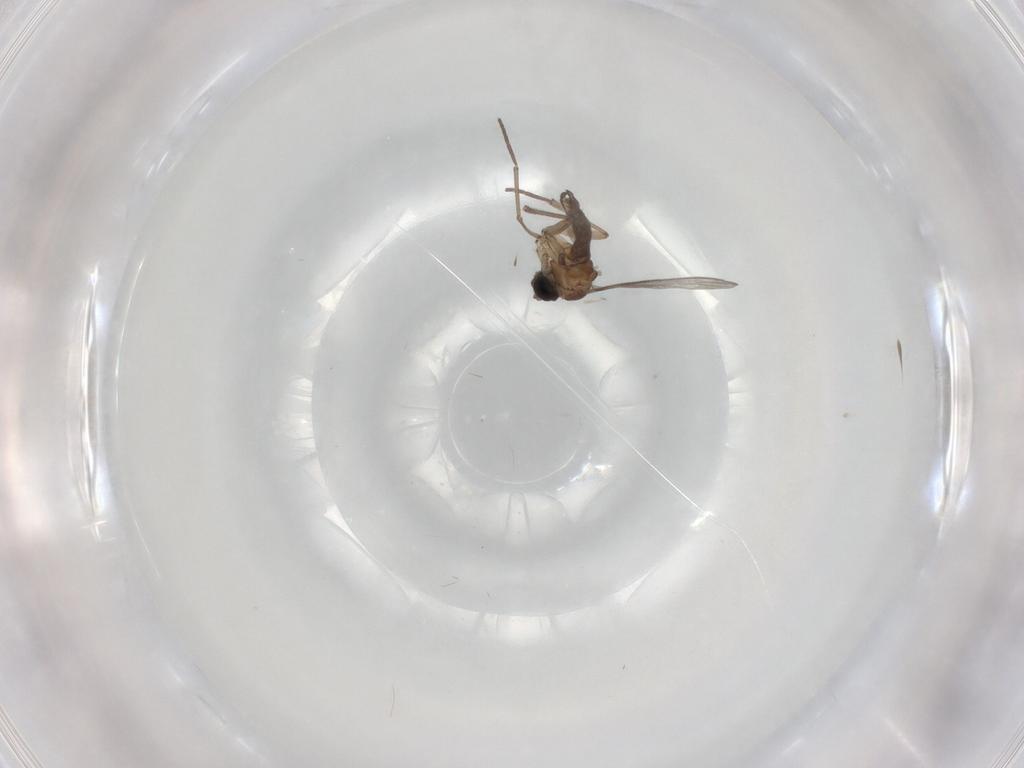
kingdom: Animalia
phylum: Arthropoda
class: Insecta
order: Diptera
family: Sciaridae
